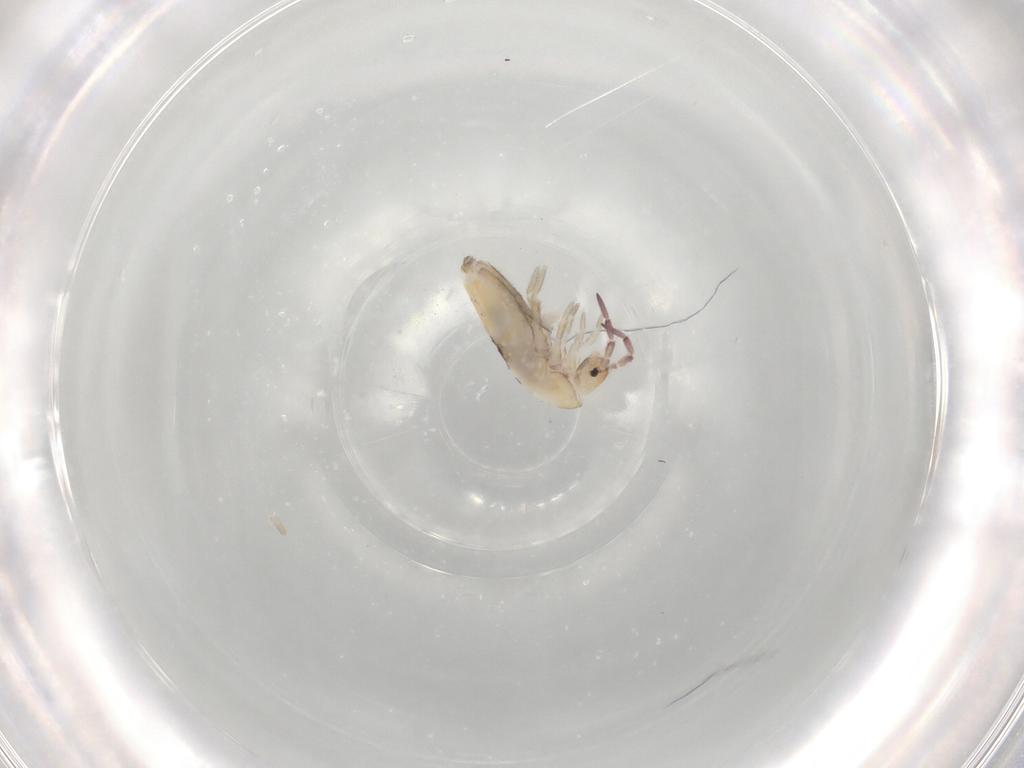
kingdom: Animalia
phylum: Arthropoda
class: Collembola
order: Entomobryomorpha
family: Entomobryidae
